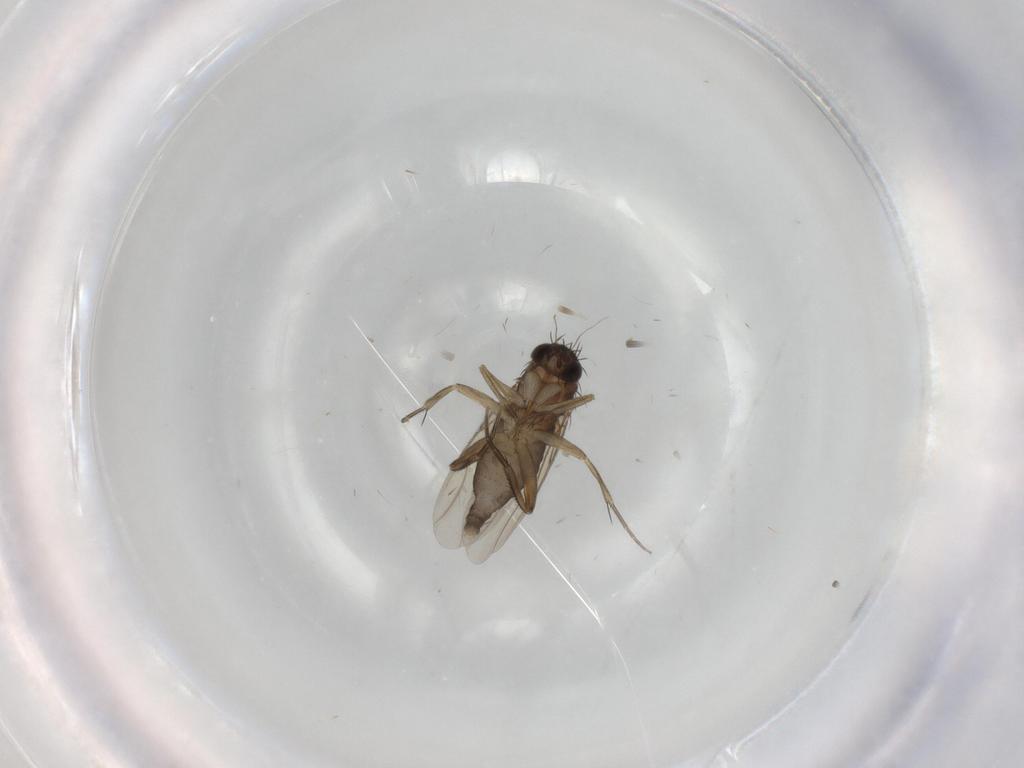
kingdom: Animalia
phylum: Arthropoda
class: Insecta
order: Diptera
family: Phoridae
